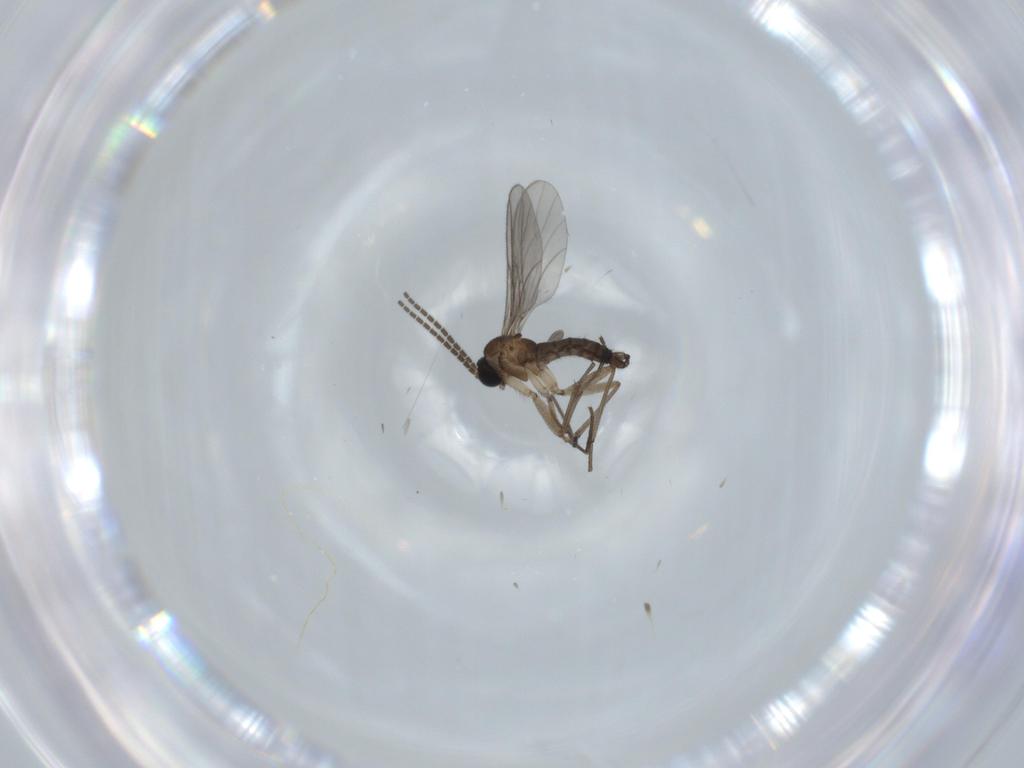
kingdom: Animalia
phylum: Arthropoda
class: Insecta
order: Diptera
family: Sciaridae
